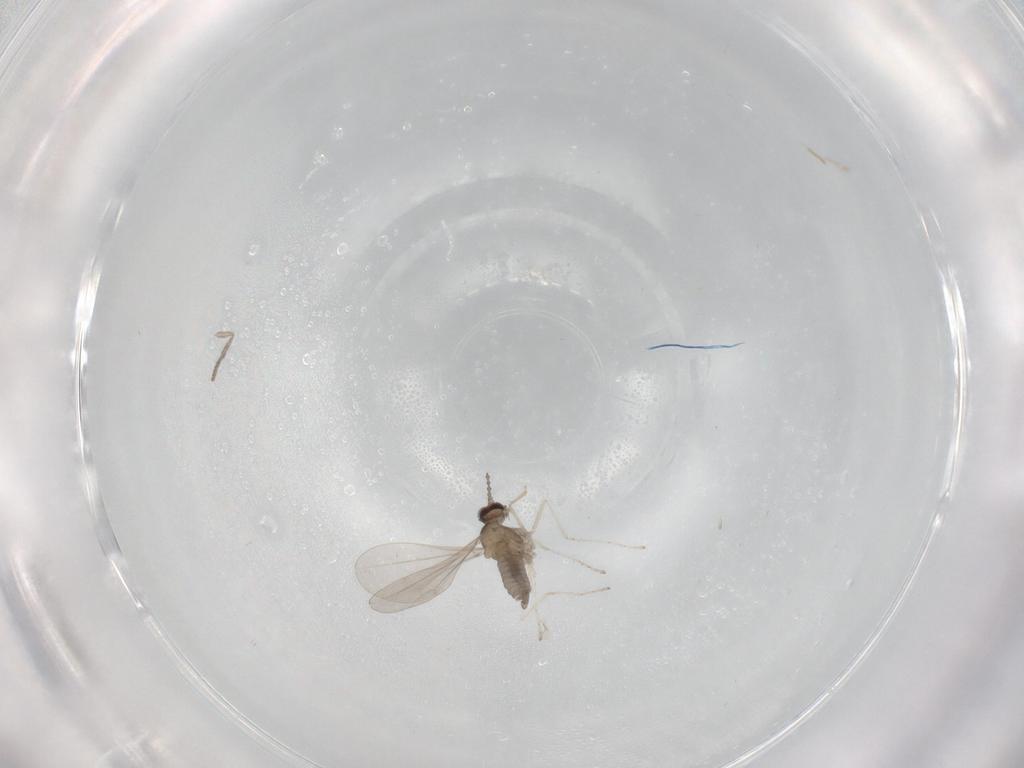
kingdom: Animalia
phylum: Arthropoda
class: Insecta
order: Diptera
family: Psychodidae
